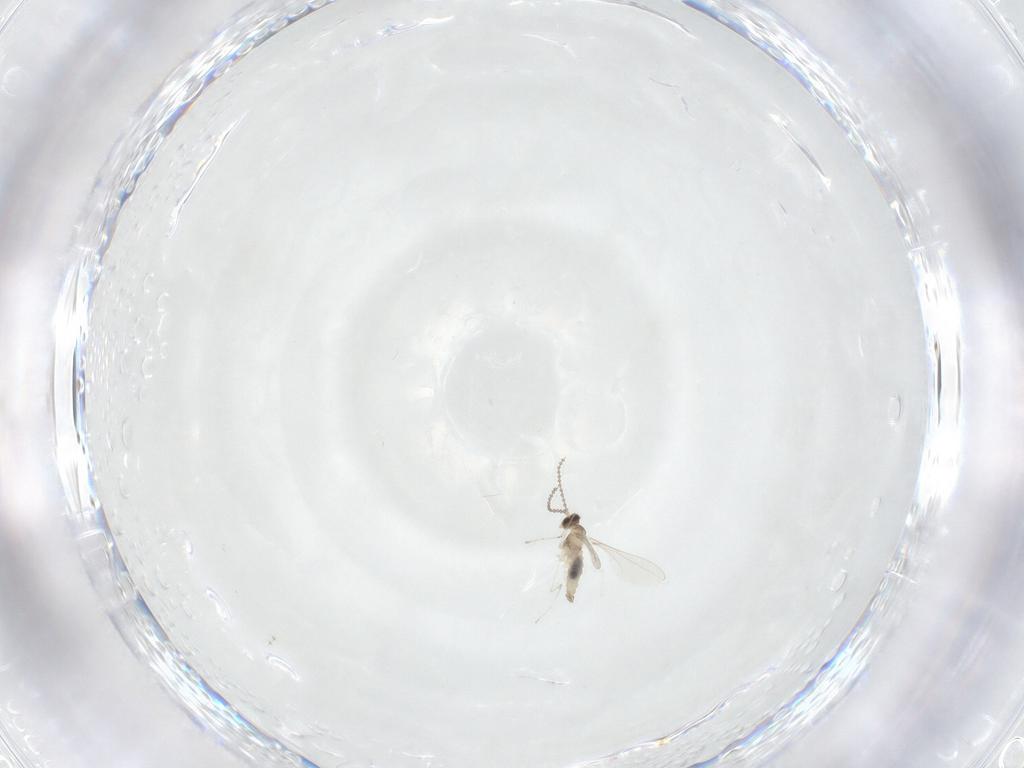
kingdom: Animalia
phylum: Arthropoda
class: Insecta
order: Diptera
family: Cecidomyiidae
